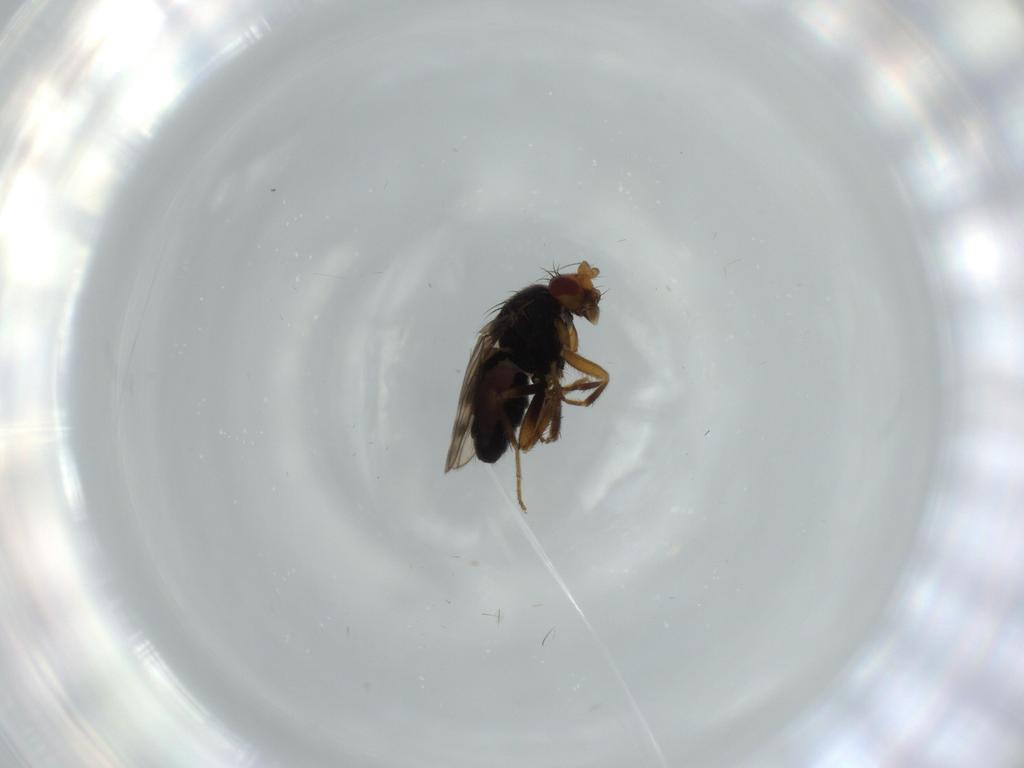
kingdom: Animalia
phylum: Arthropoda
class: Insecta
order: Diptera
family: Sphaeroceridae
